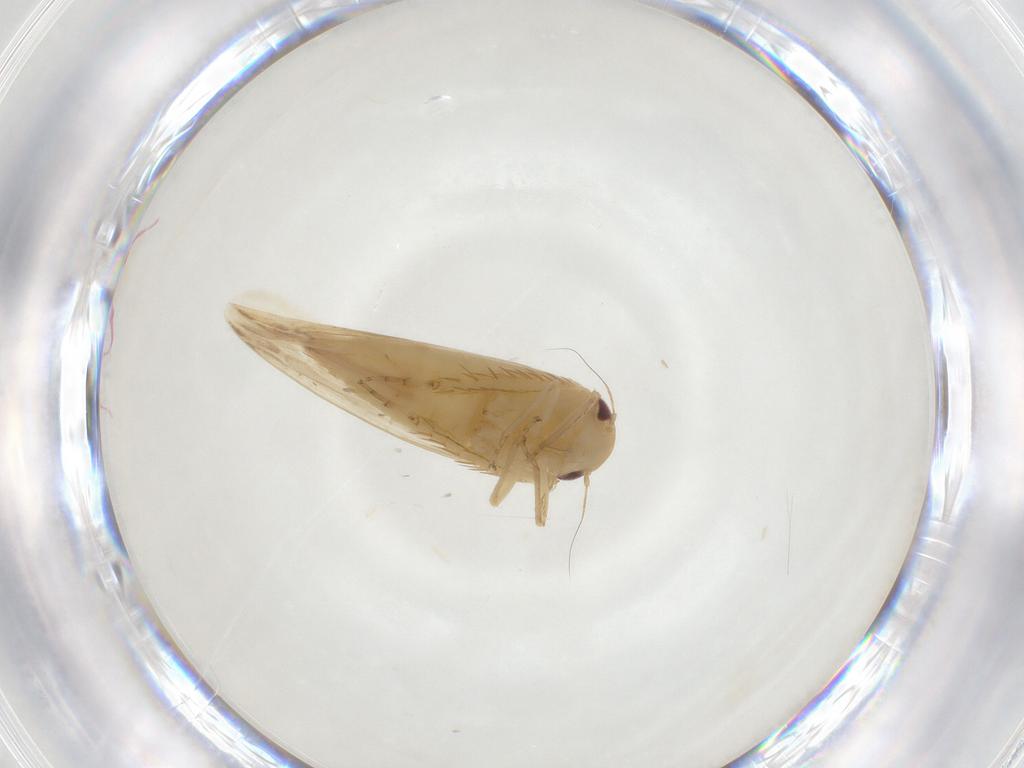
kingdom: Animalia
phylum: Arthropoda
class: Insecta
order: Hemiptera
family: Cicadellidae
